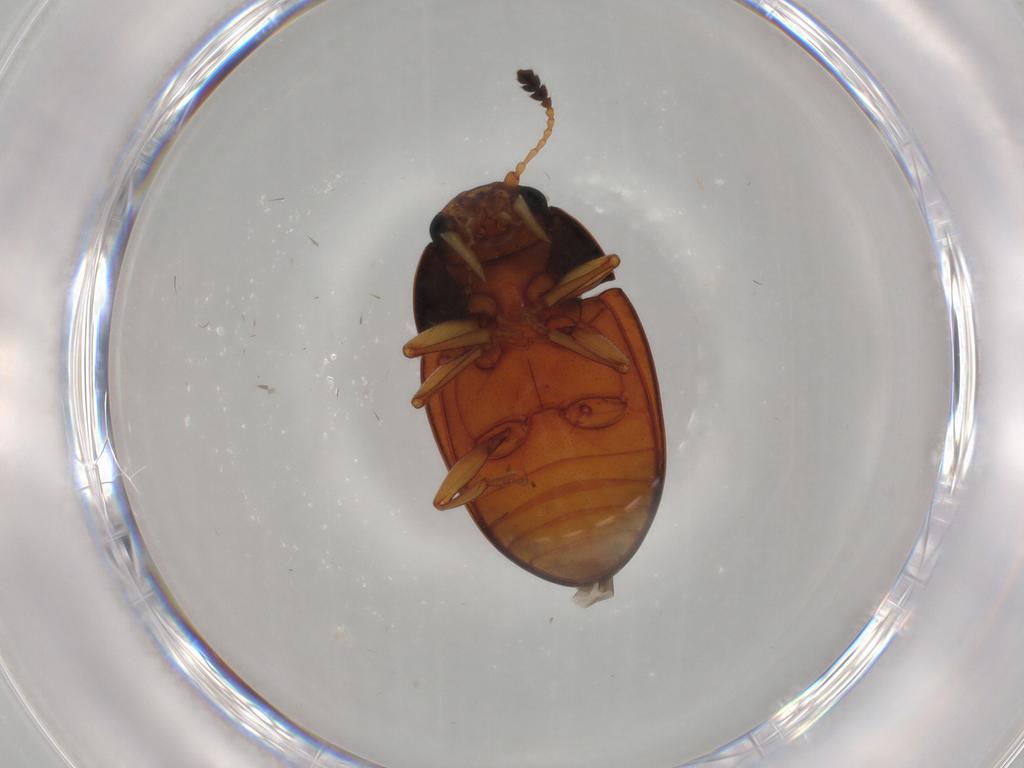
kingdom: Animalia
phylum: Arthropoda
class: Insecta
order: Coleoptera
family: Erotylidae
